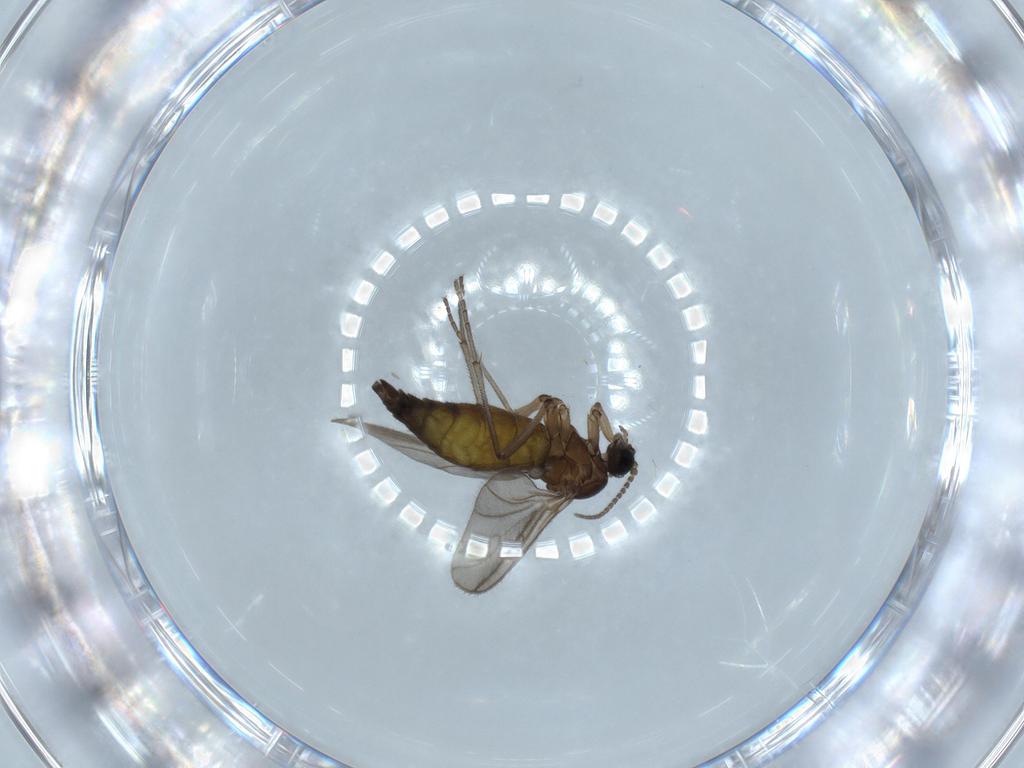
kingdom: Animalia
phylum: Arthropoda
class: Insecta
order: Diptera
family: Sciaridae
